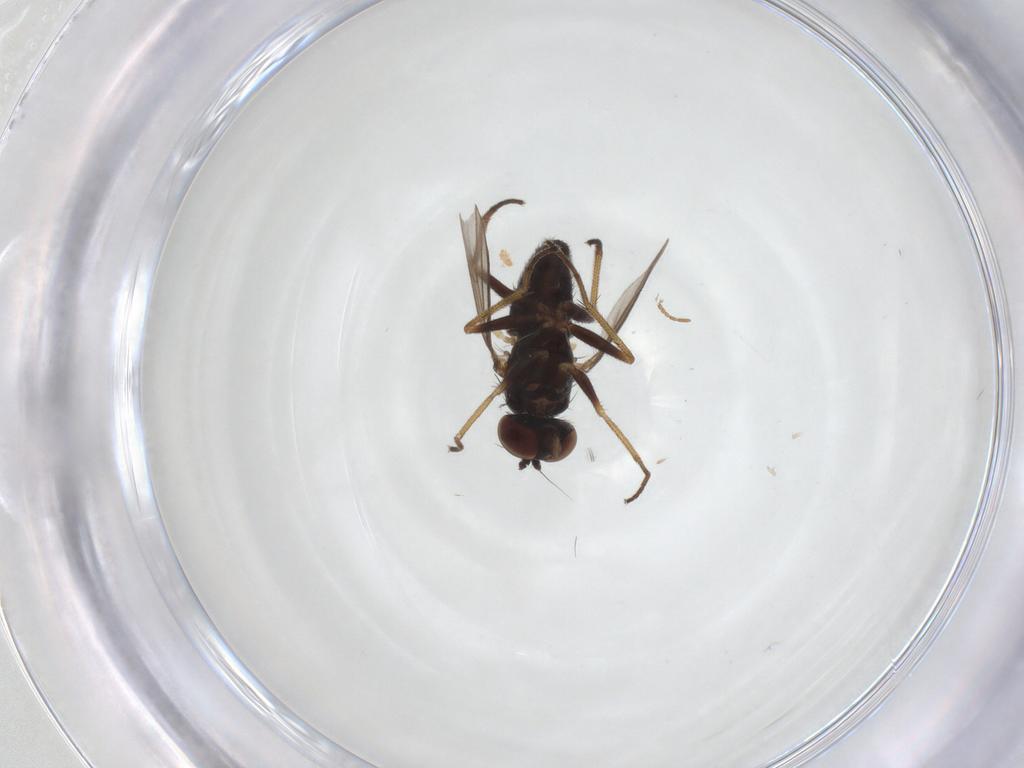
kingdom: Animalia
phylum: Arthropoda
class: Insecta
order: Diptera
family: Dolichopodidae
